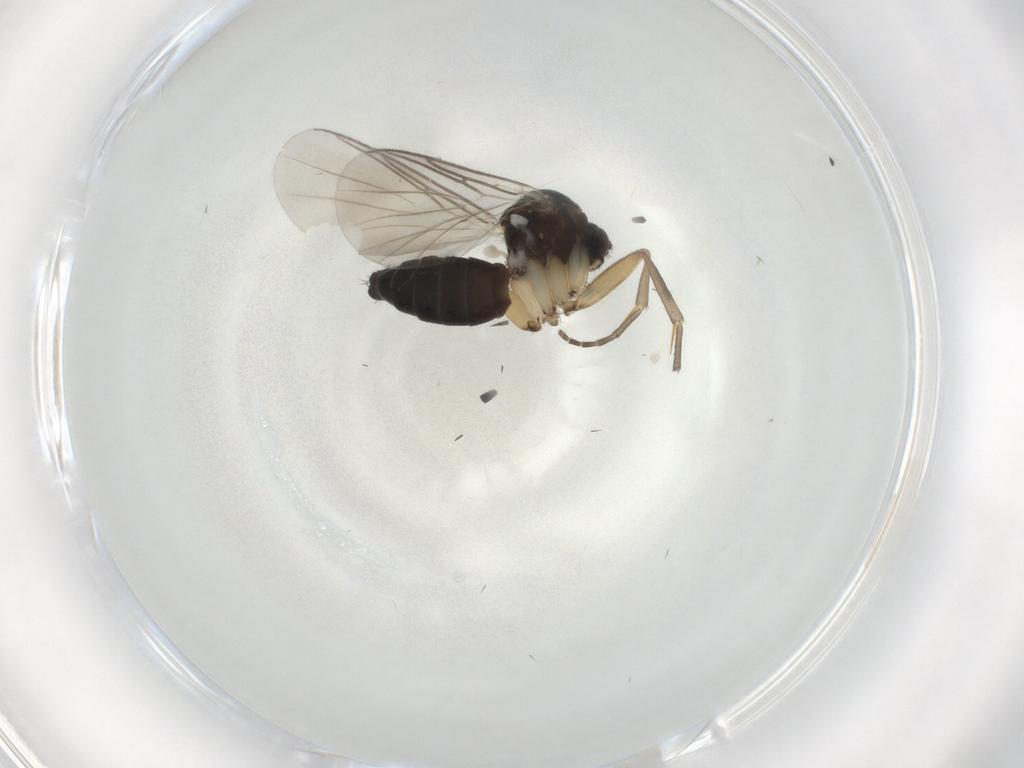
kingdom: Animalia
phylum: Arthropoda
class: Insecta
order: Diptera
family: Mycetophilidae
